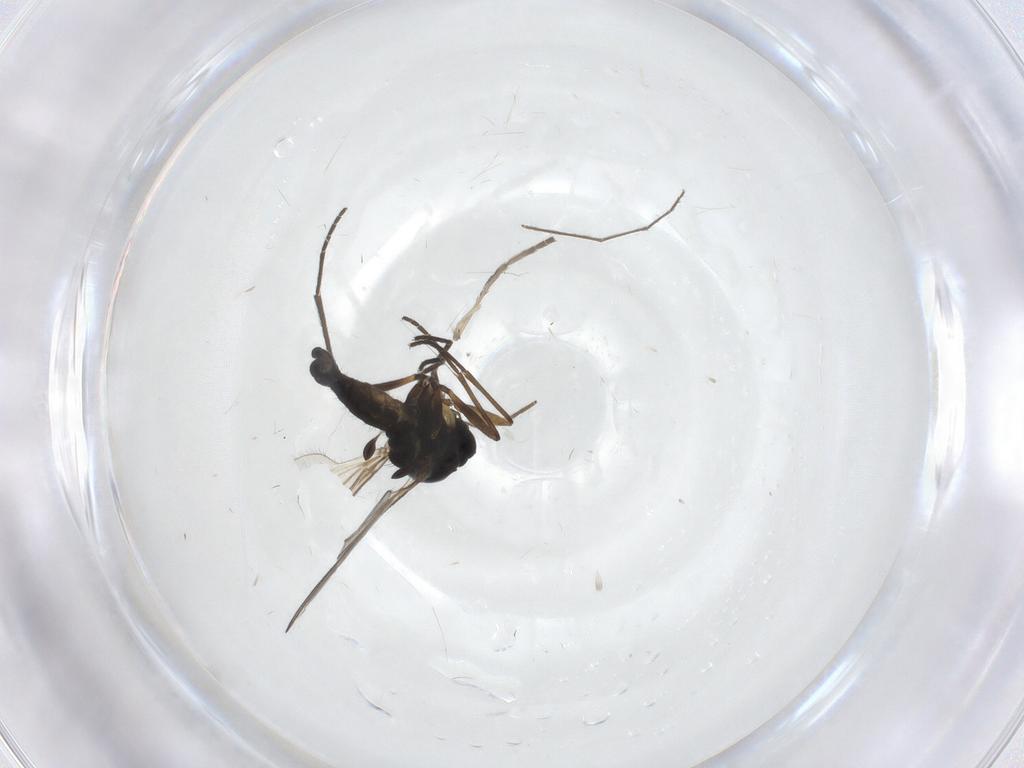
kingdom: Animalia
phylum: Arthropoda
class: Insecta
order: Diptera
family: Sciaridae
